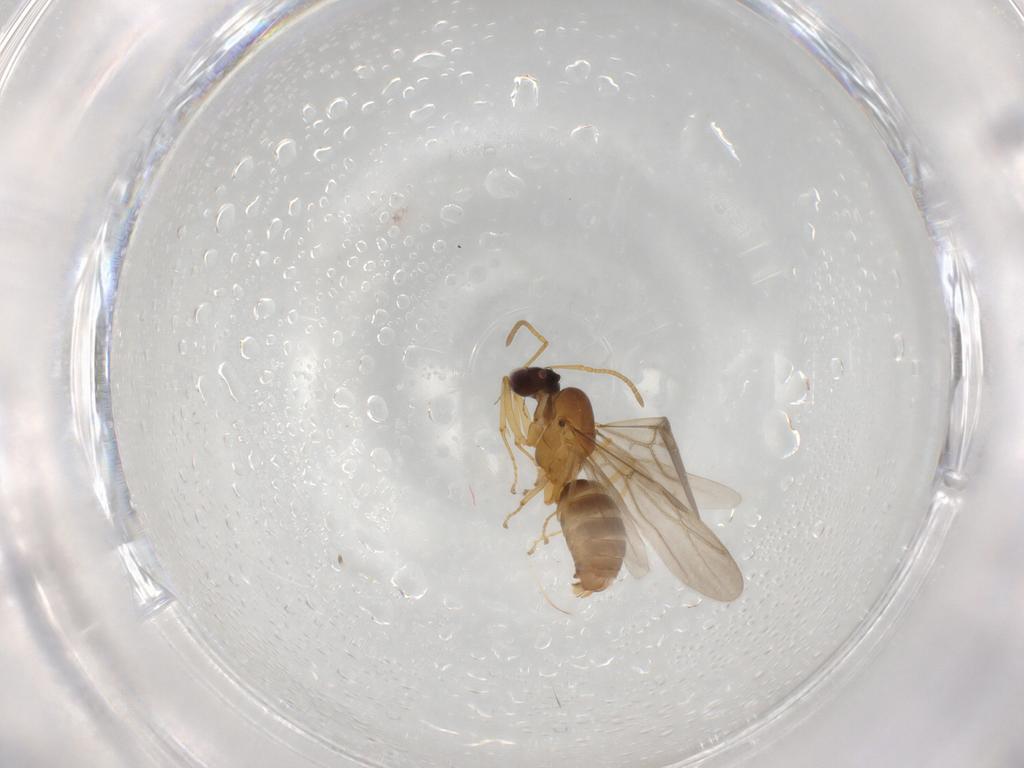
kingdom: Animalia
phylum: Arthropoda
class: Insecta
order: Hymenoptera
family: Formicidae
